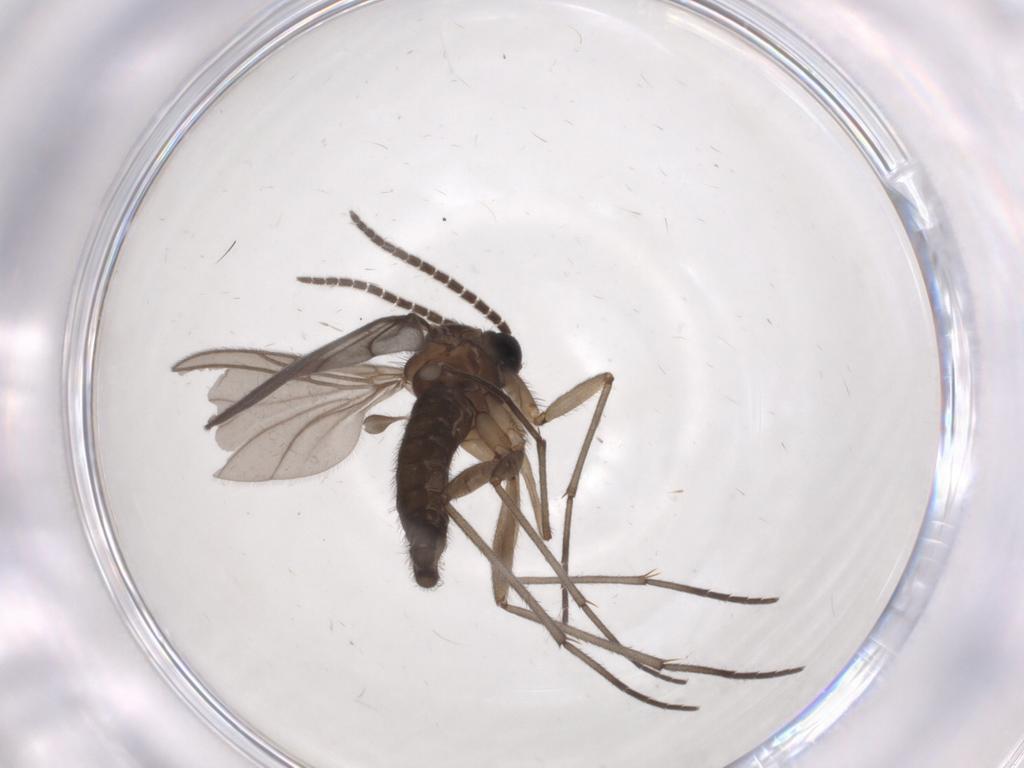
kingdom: Animalia
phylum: Arthropoda
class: Insecta
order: Diptera
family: Sciaridae
